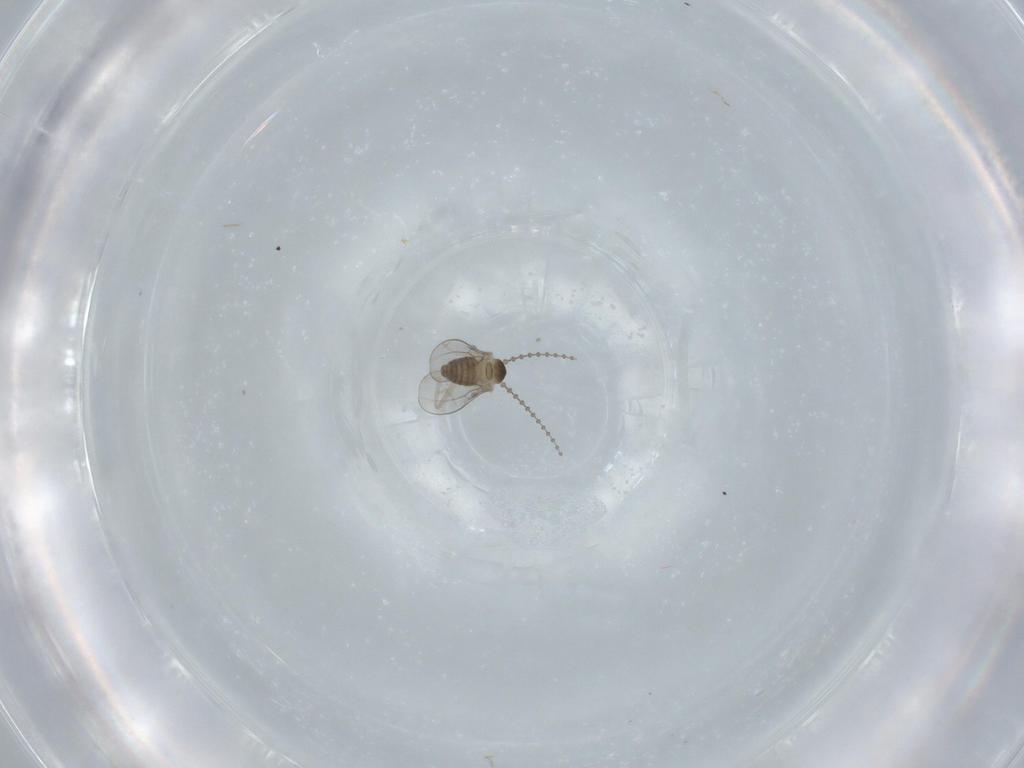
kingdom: Animalia
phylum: Arthropoda
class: Insecta
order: Diptera
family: Cecidomyiidae
